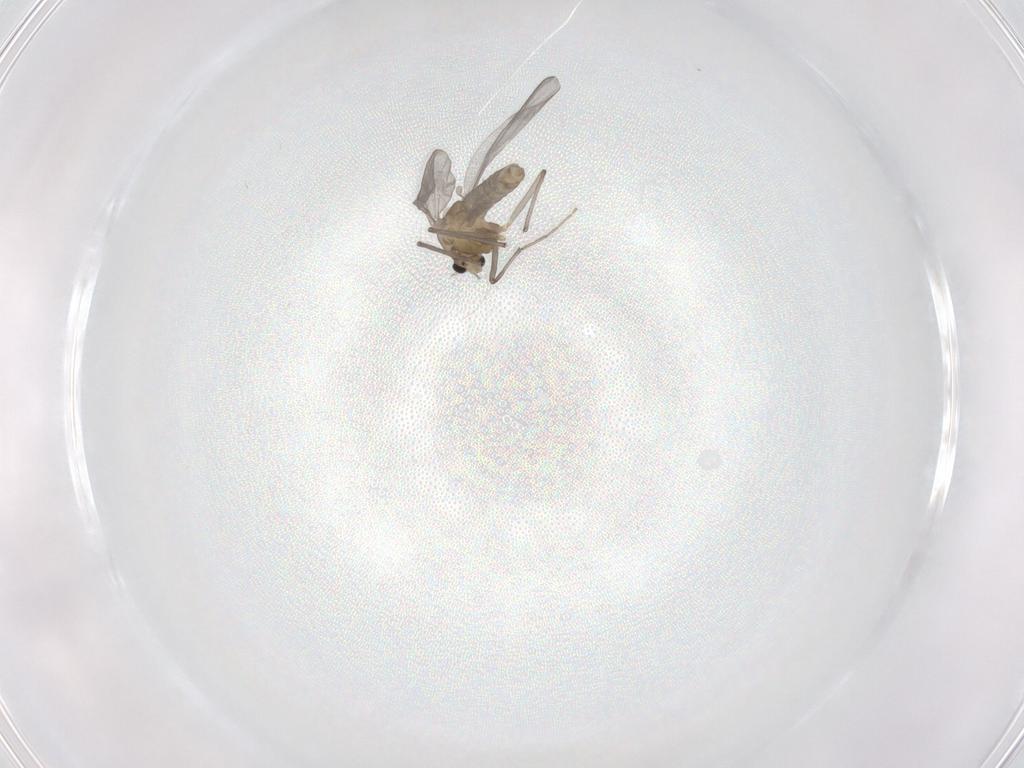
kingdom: Animalia
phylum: Arthropoda
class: Insecta
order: Diptera
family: Chironomidae
